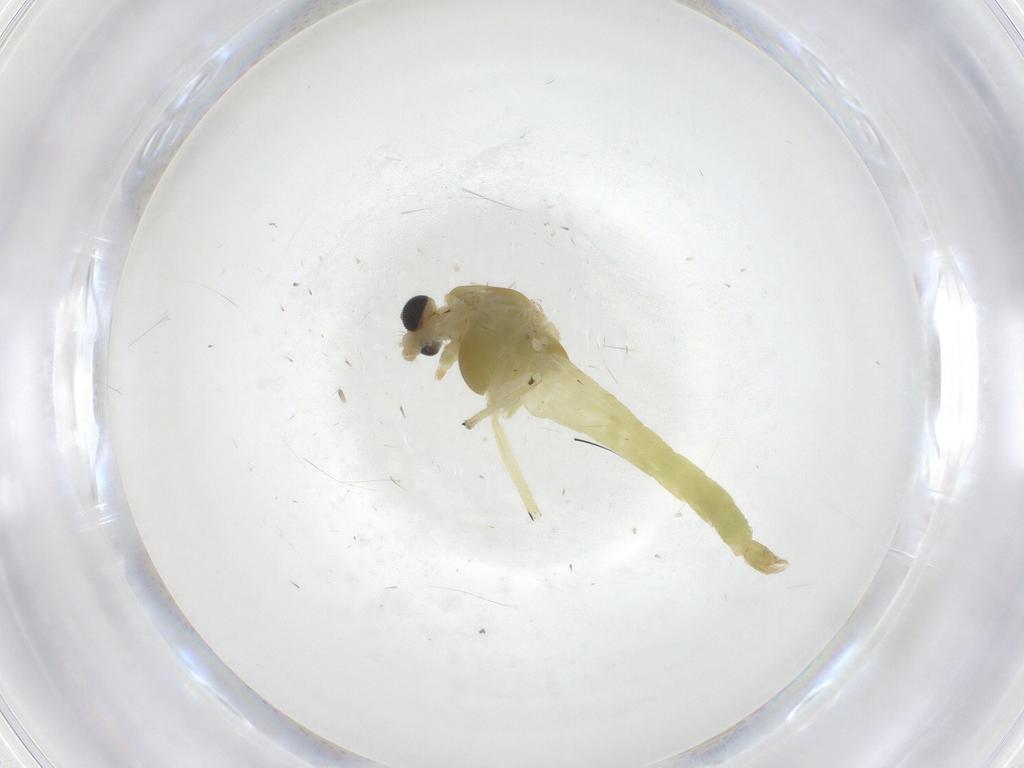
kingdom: Animalia
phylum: Arthropoda
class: Insecta
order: Diptera
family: Chironomidae
